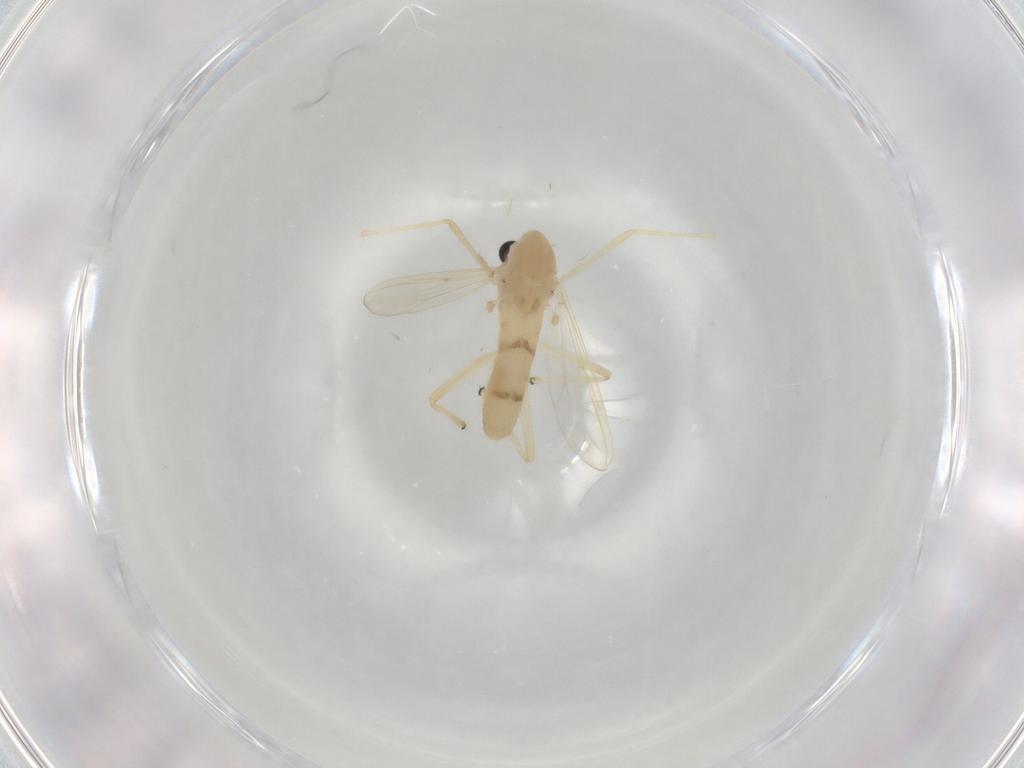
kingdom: Animalia
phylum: Arthropoda
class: Insecta
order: Diptera
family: Chironomidae
